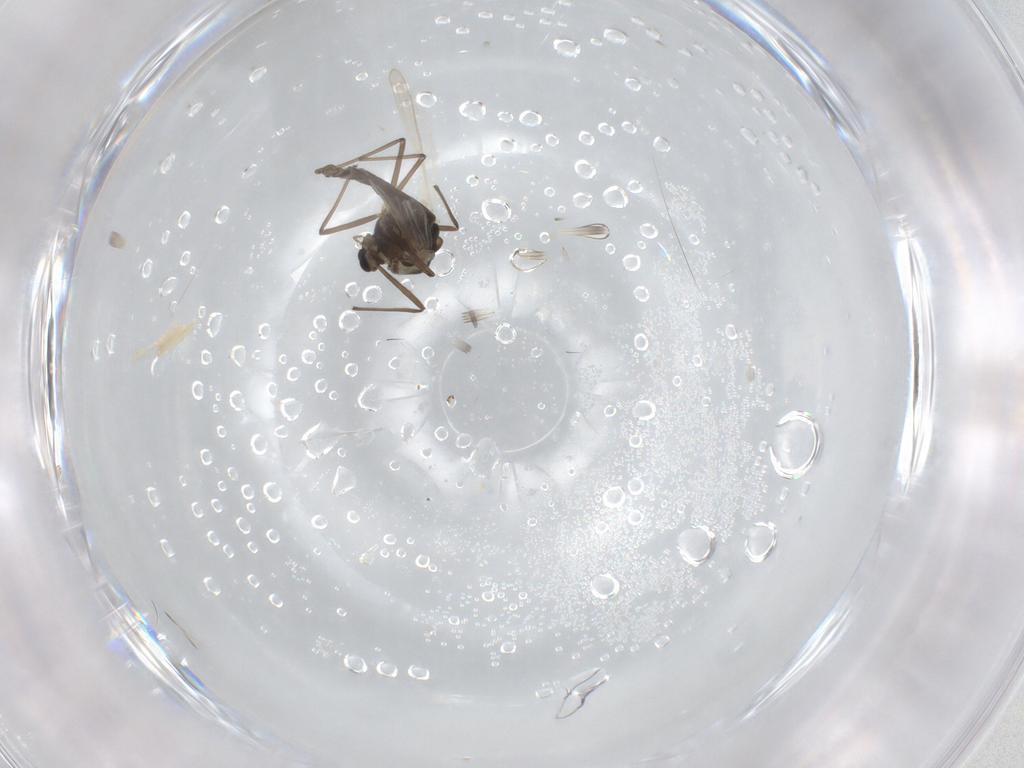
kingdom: Animalia
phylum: Arthropoda
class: Insecta
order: Diptera
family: Chironomidae
